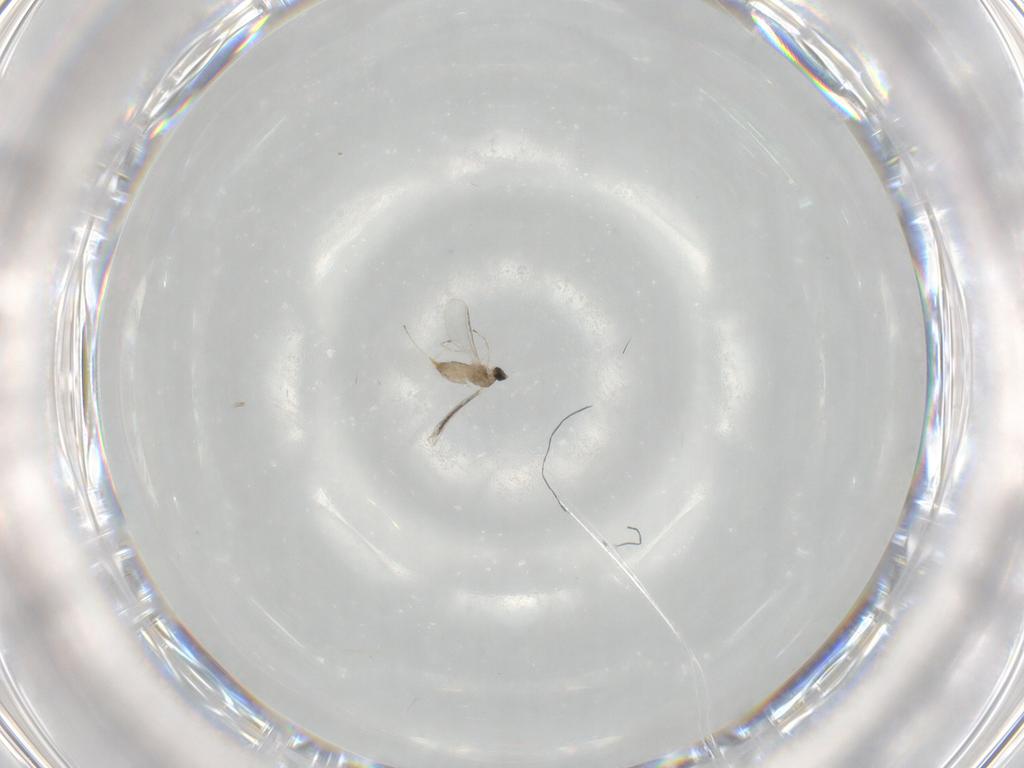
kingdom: Animalia
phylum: Arthropoda
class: Insecta
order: Diptera
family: Cecidomyiidae
